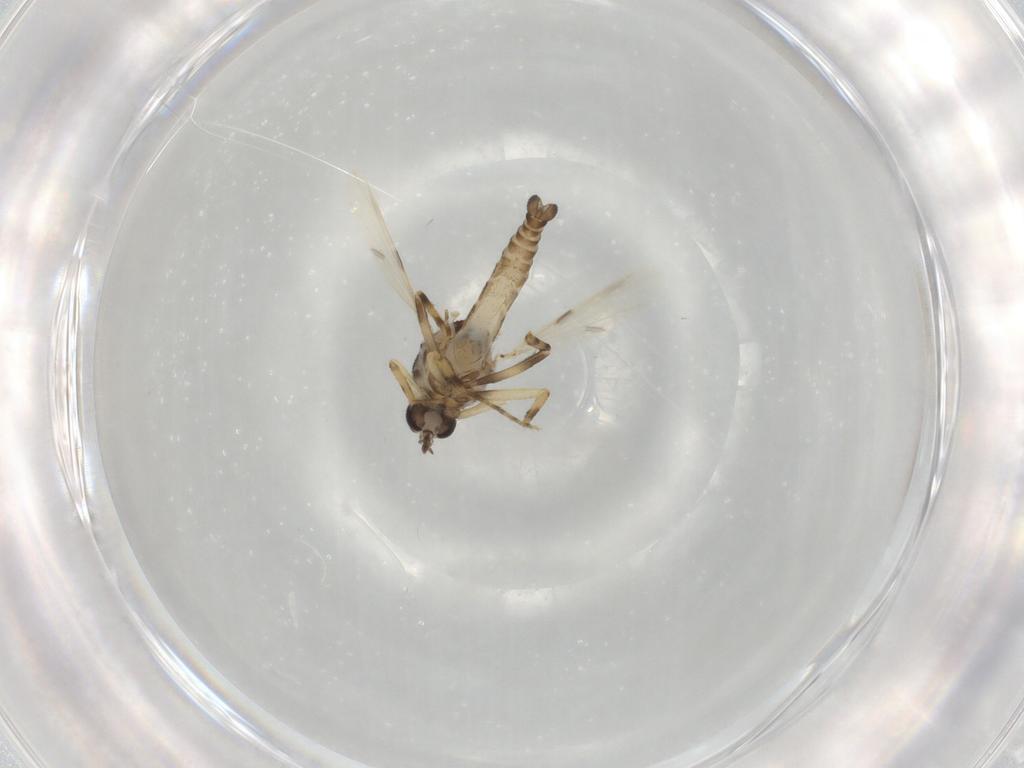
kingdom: Animalia
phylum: Arthropoda
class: Insecta
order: Diptera
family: Ceratopogonidae
